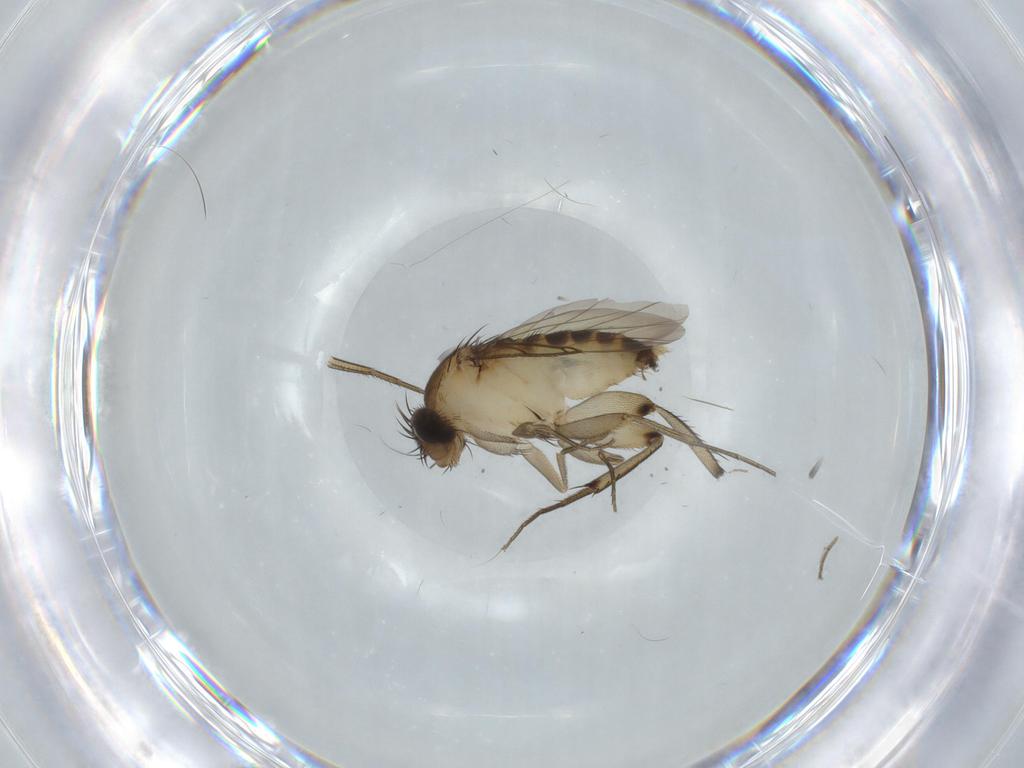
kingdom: Animalia
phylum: Arthropoda
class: Insecta
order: Diptera
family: Phoridae
